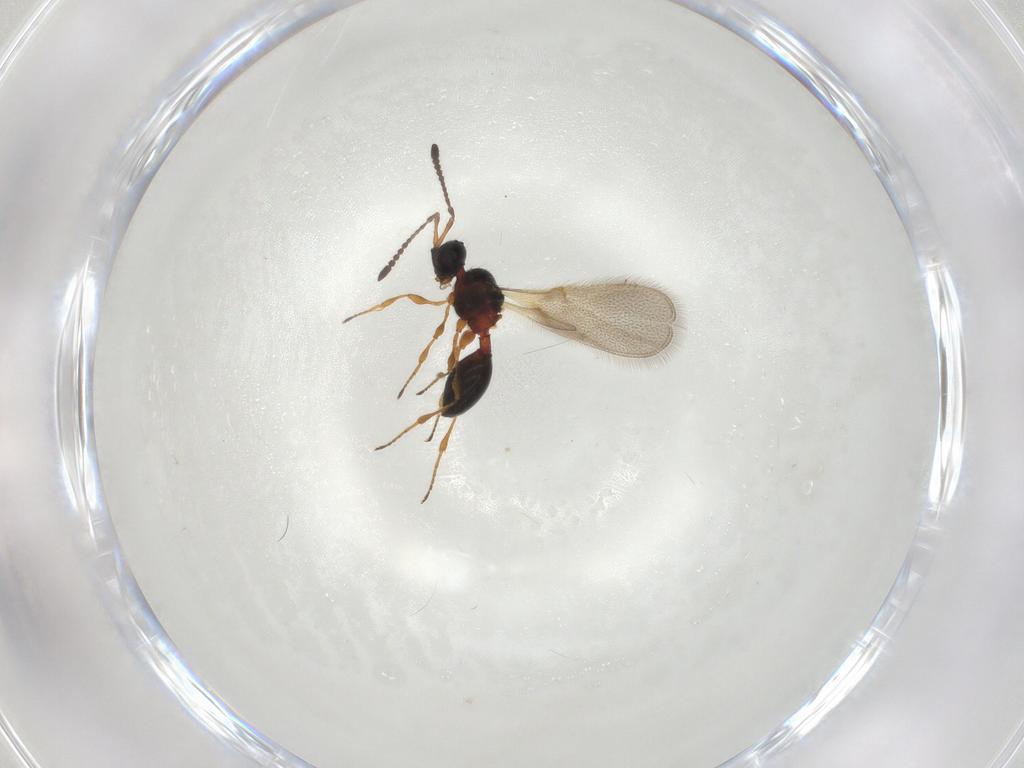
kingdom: Animalia
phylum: Arthropoda
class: Insecta
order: Hymenoptera
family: Diapriidae
